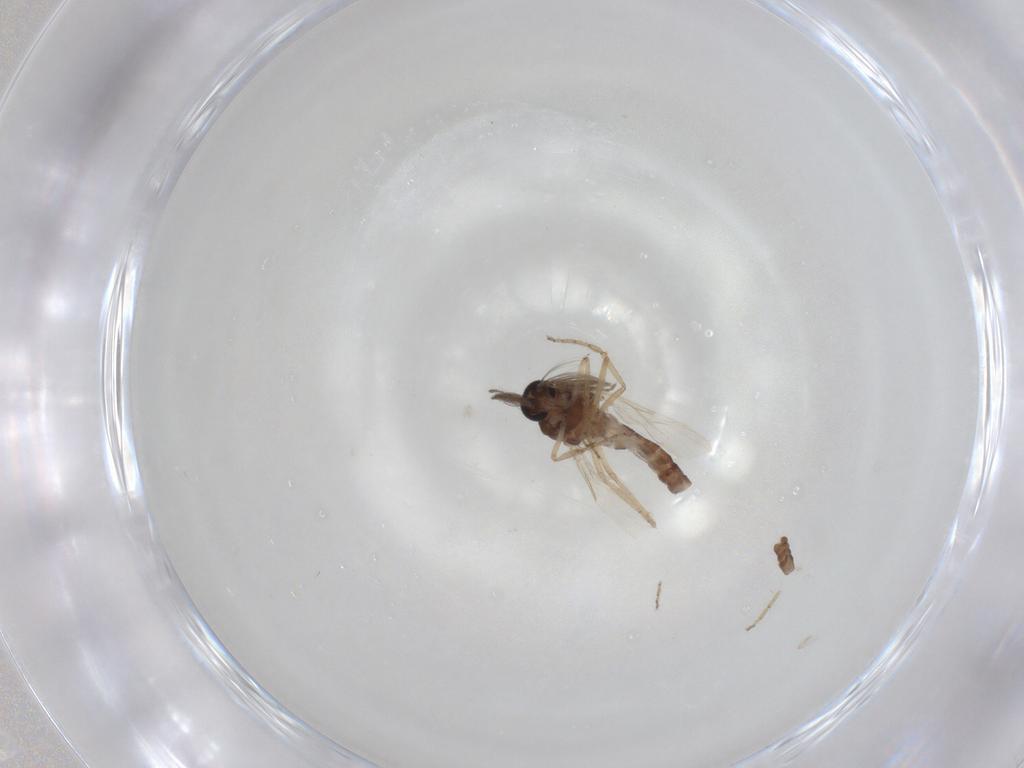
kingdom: Animalia
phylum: Arthropoda
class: Insecta
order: Diptera
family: Ceratopogonidae
